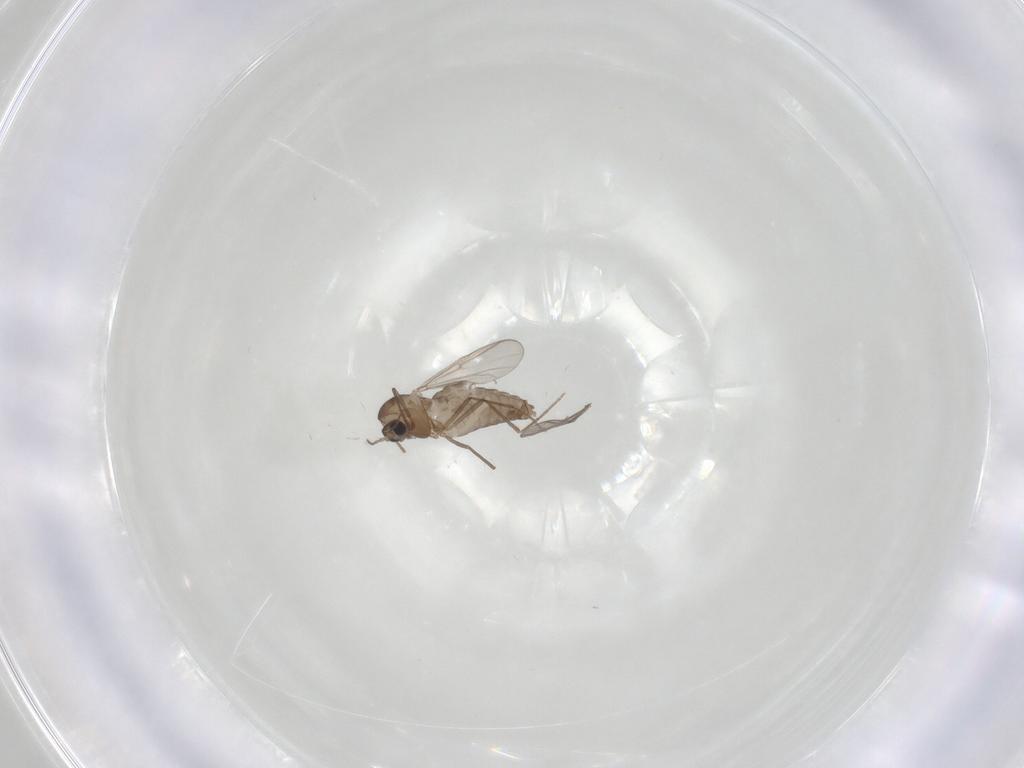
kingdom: Animalia
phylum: Arthropoda
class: Insecta
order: Diptera
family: Chironomidae
